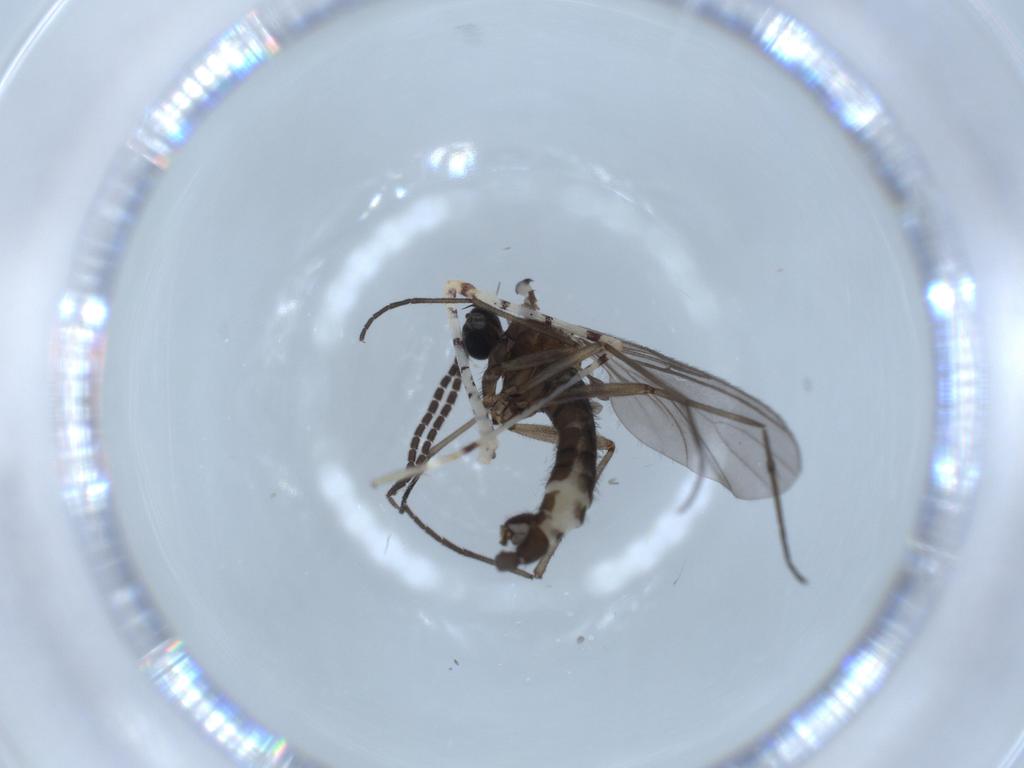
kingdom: Animalia
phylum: Arthropoda
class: Insecta
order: Diptera
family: Sciaridae
